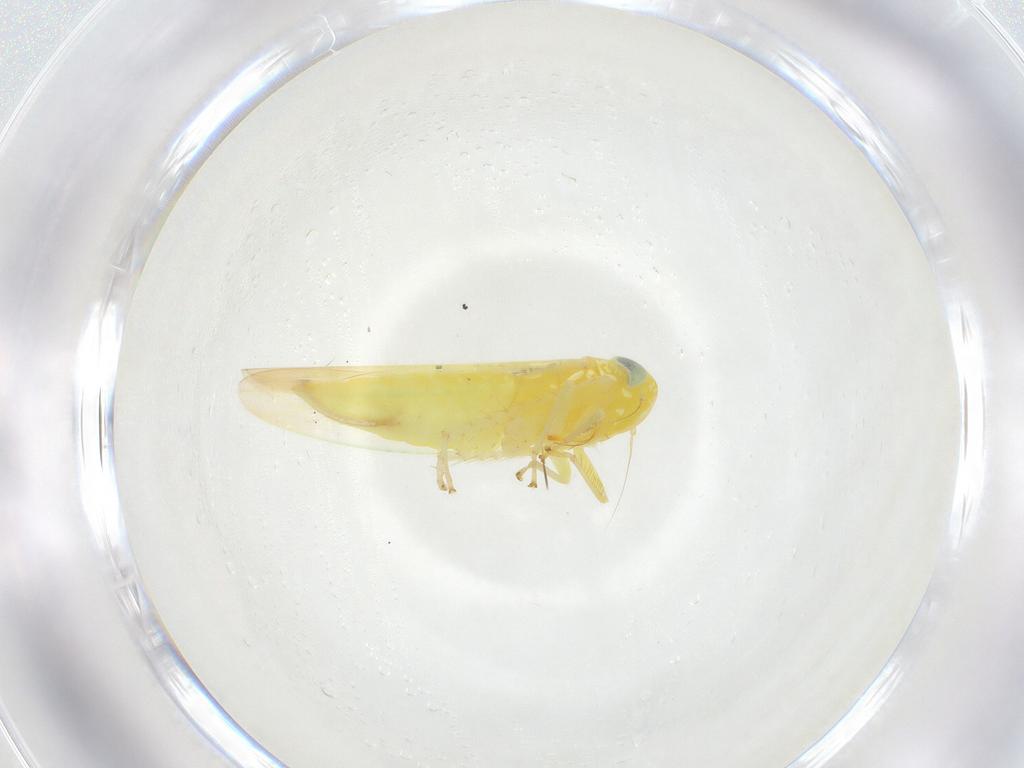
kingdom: Animalia
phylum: Arthropoda
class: Insecta
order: Hemiptera
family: Cicadellidae
